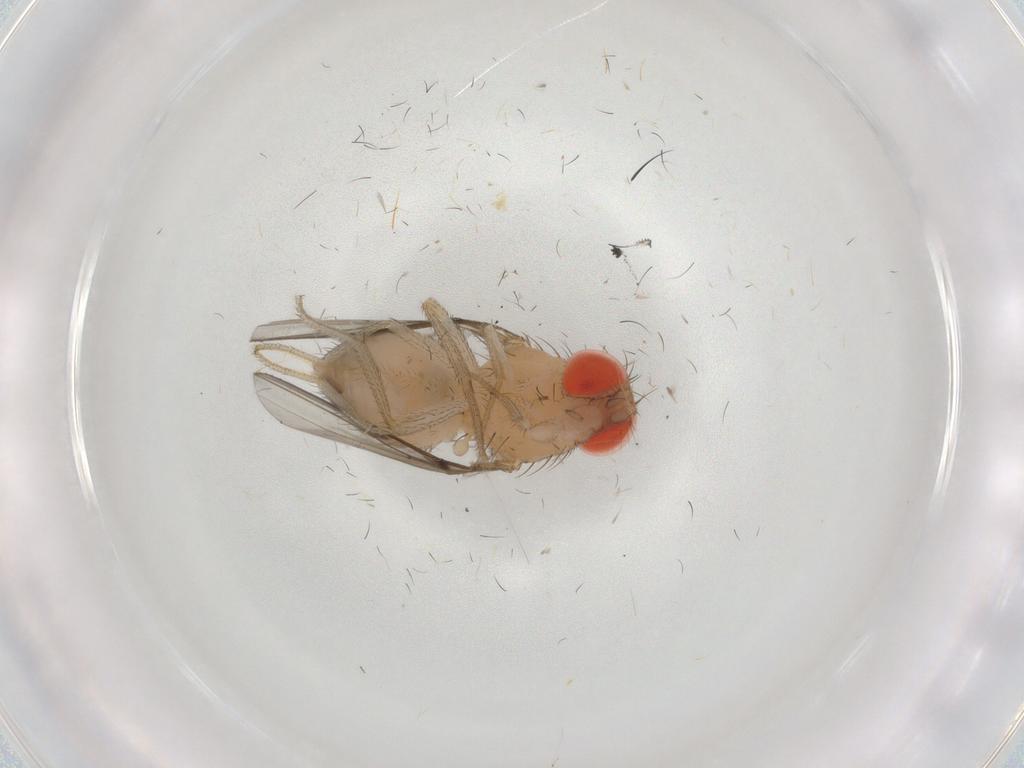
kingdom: Animalia
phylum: Arthropoda
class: Insecta
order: Diptera
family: Drosophilidae
